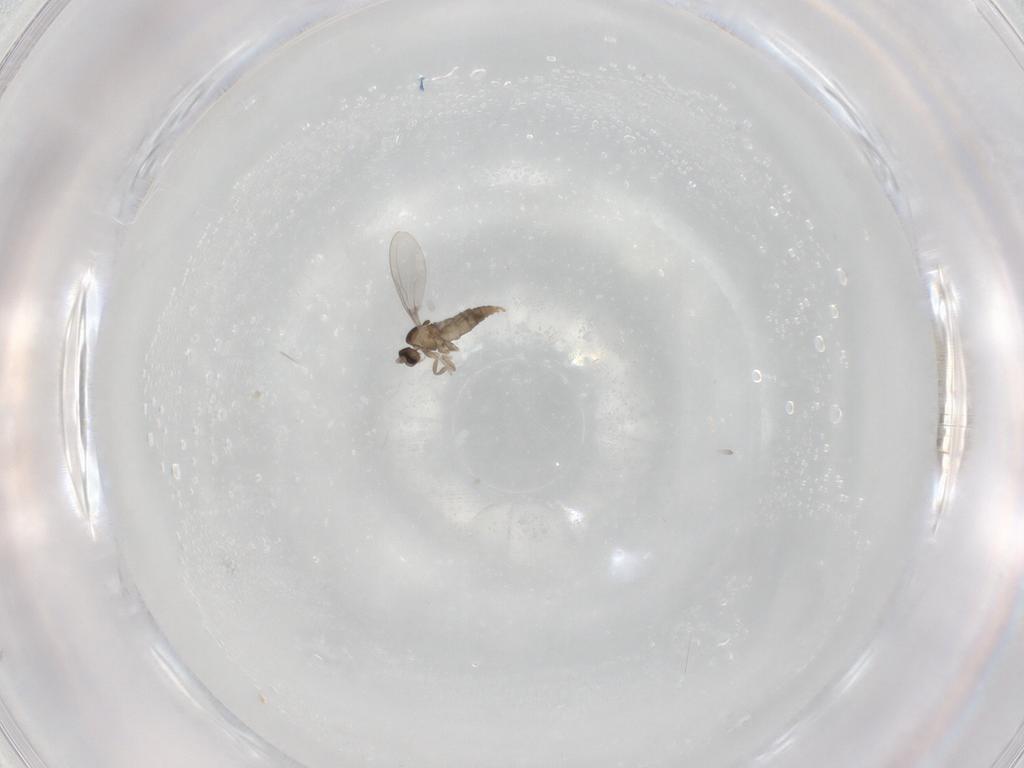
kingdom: Animalia
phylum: Arthropoda
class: Insecta
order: Diptera
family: Cecidomyiidae
